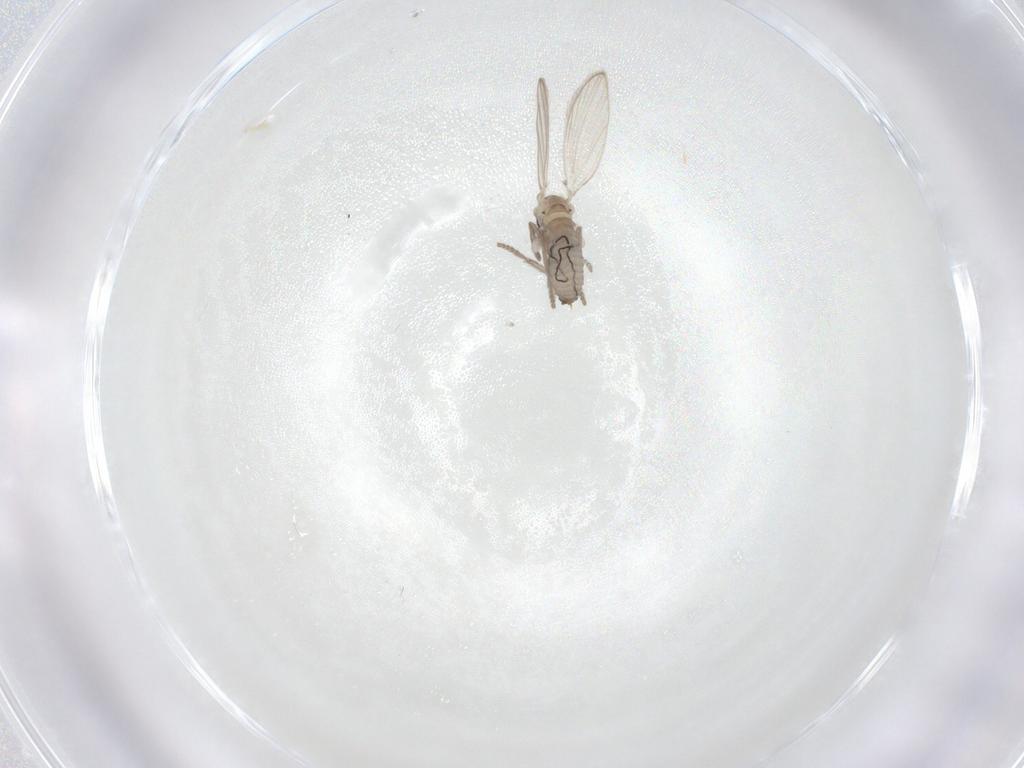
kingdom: Animalia
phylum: Arthropoda
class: Insecta
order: Diptera
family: Psychodidae
